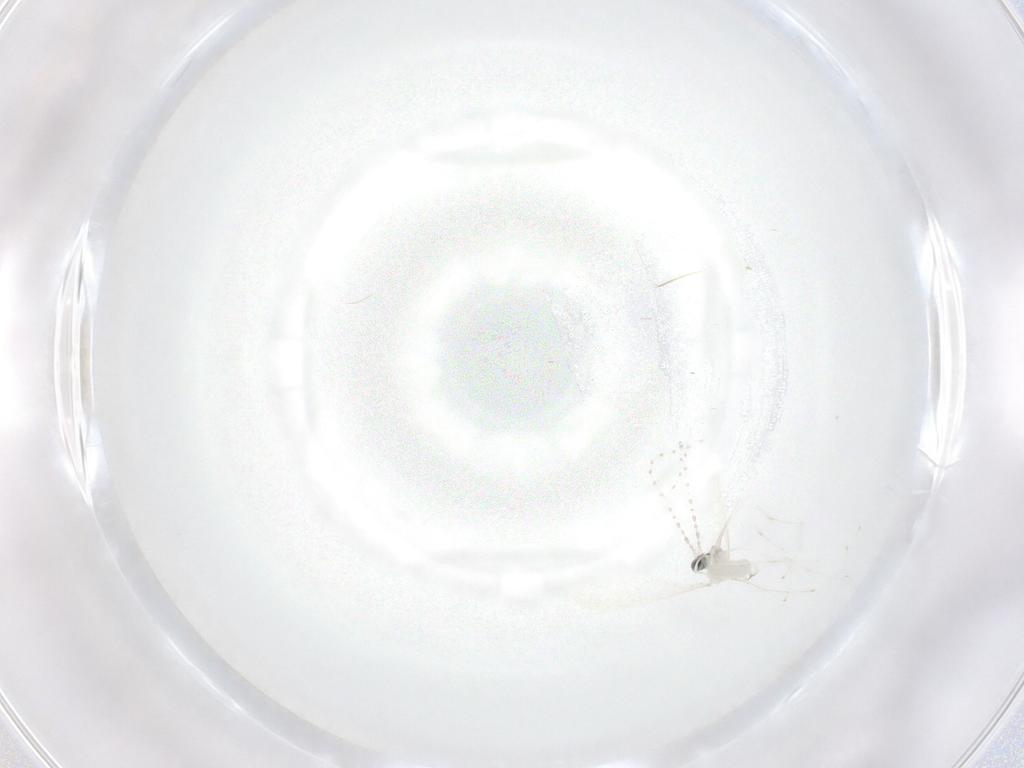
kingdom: Animalia
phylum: Arthropoda
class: Insecta
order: Diptera
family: Cecidomyiidae
